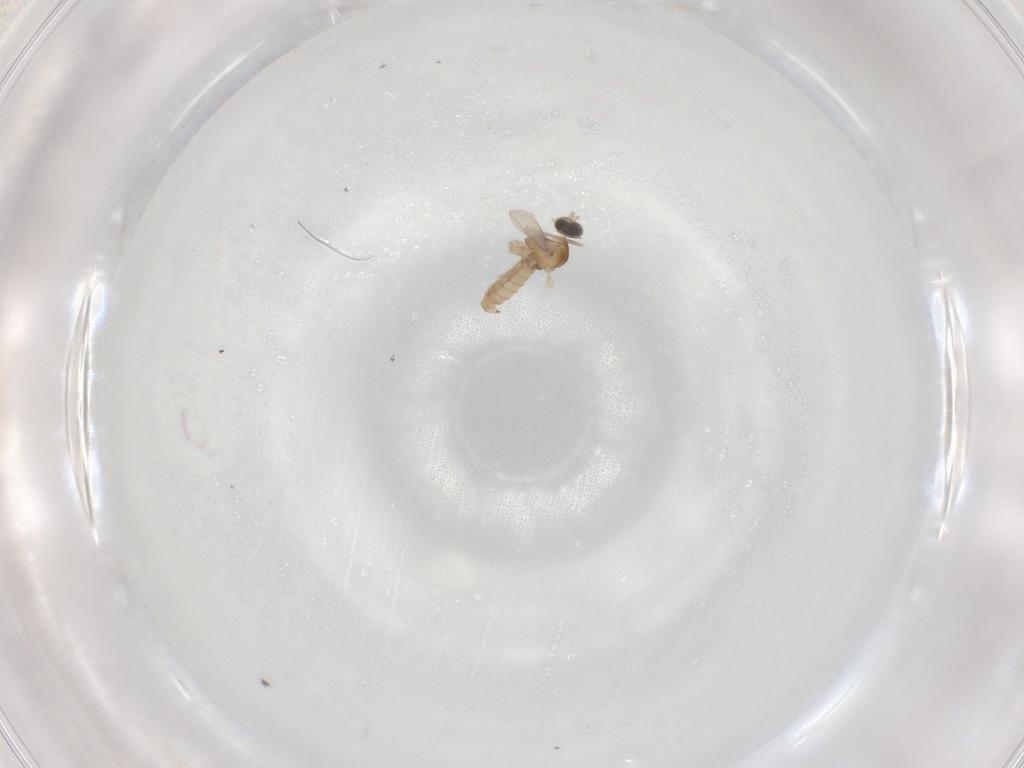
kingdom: Animalia
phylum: Arthropoda
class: Insecta
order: Diptera
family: Cecidomyiidae
